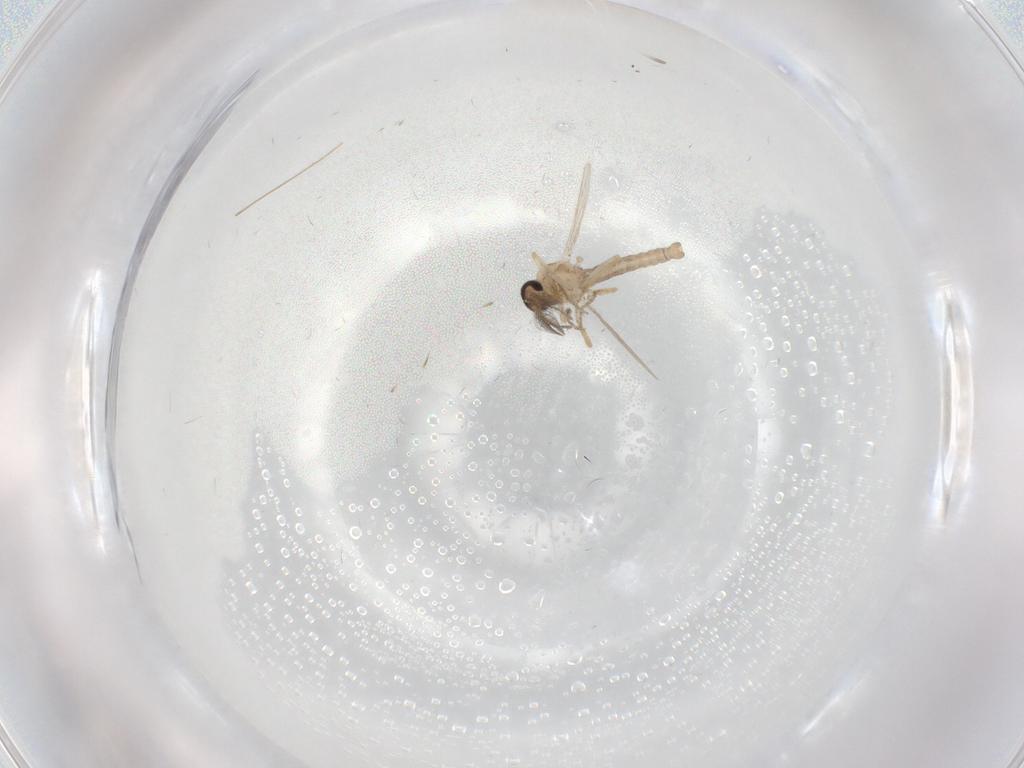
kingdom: Animalia
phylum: Arthropoda
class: Insecta
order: Diptera
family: Ceratopogonidae
